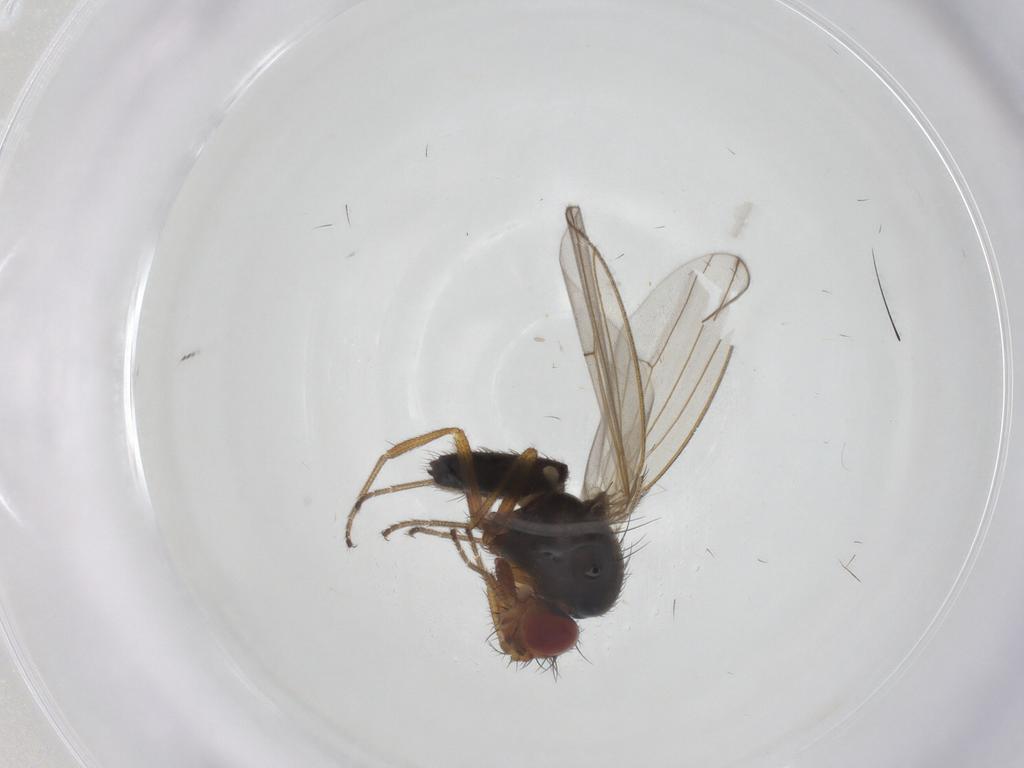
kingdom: Animalia
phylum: Arthropoda
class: Insecta
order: Diptera
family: Drosophilidae
